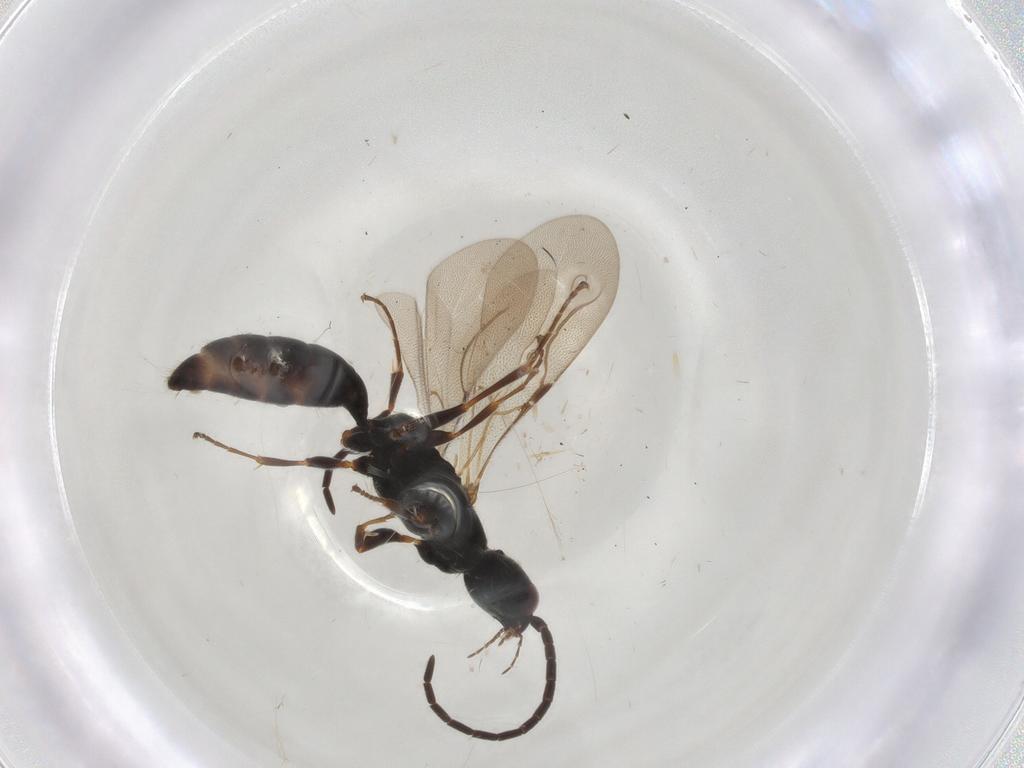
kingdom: Animalia
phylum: Arthropoda
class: Insecta
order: Hymenoptera
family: Bethylidae
